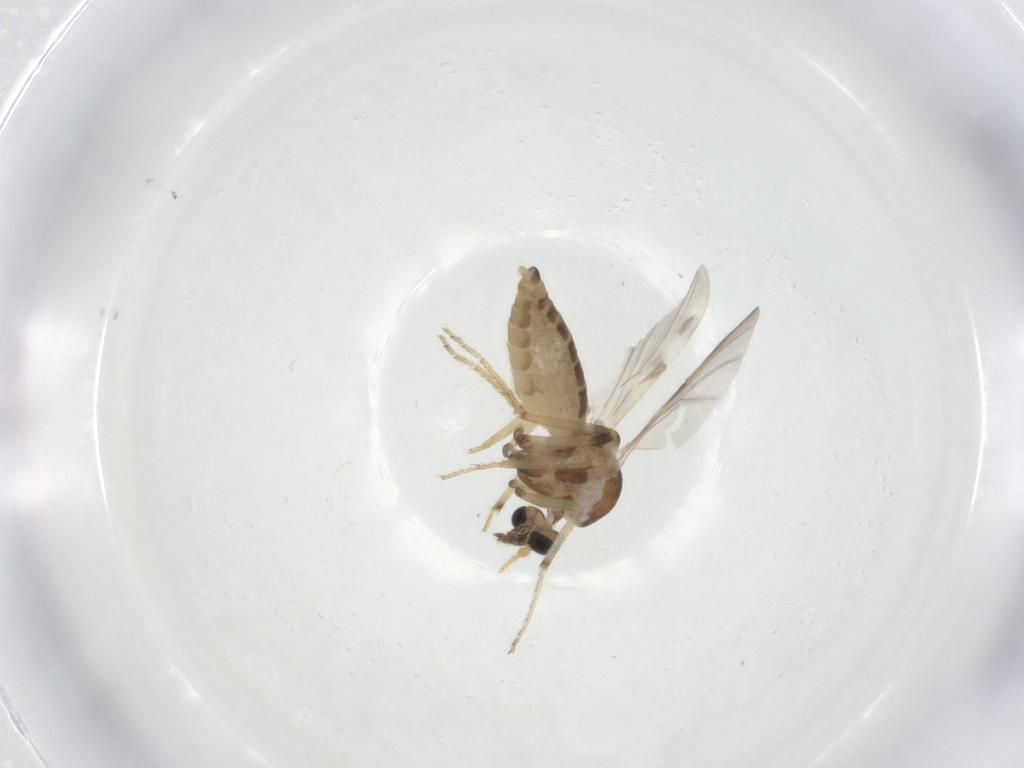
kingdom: Animalia
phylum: Arthropoda
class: Insecta
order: Diptera
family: Ceratopogonidae
